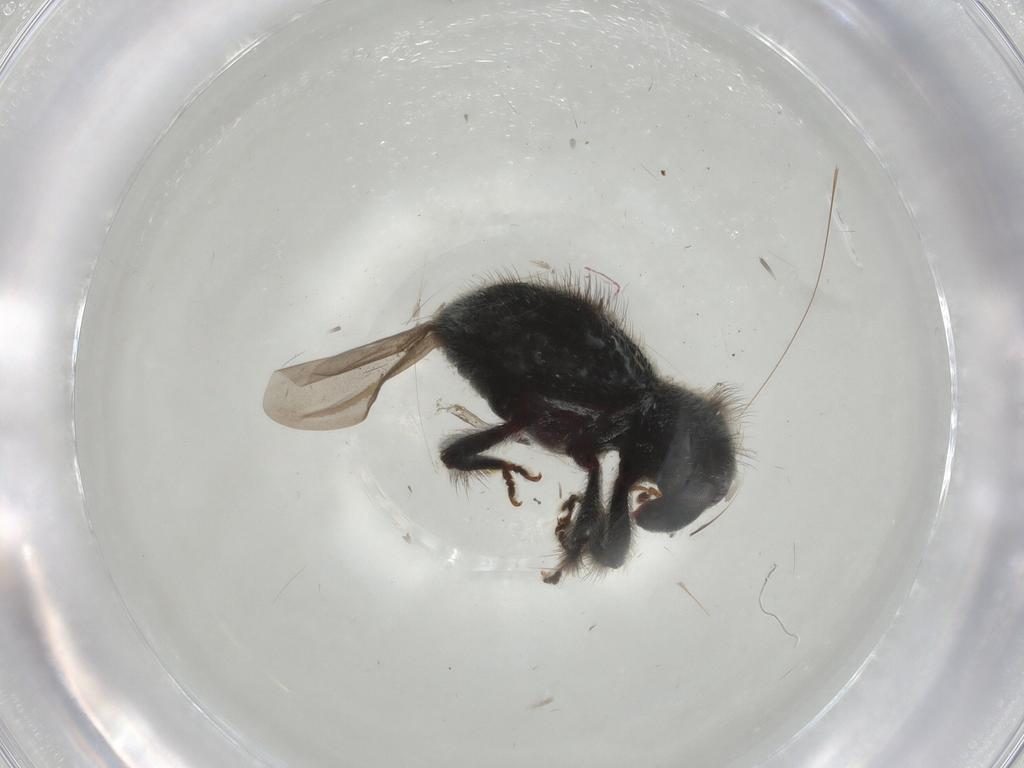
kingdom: Animalia
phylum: Arthropoda
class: Insecta
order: Coleoptera
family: Curculionidae
